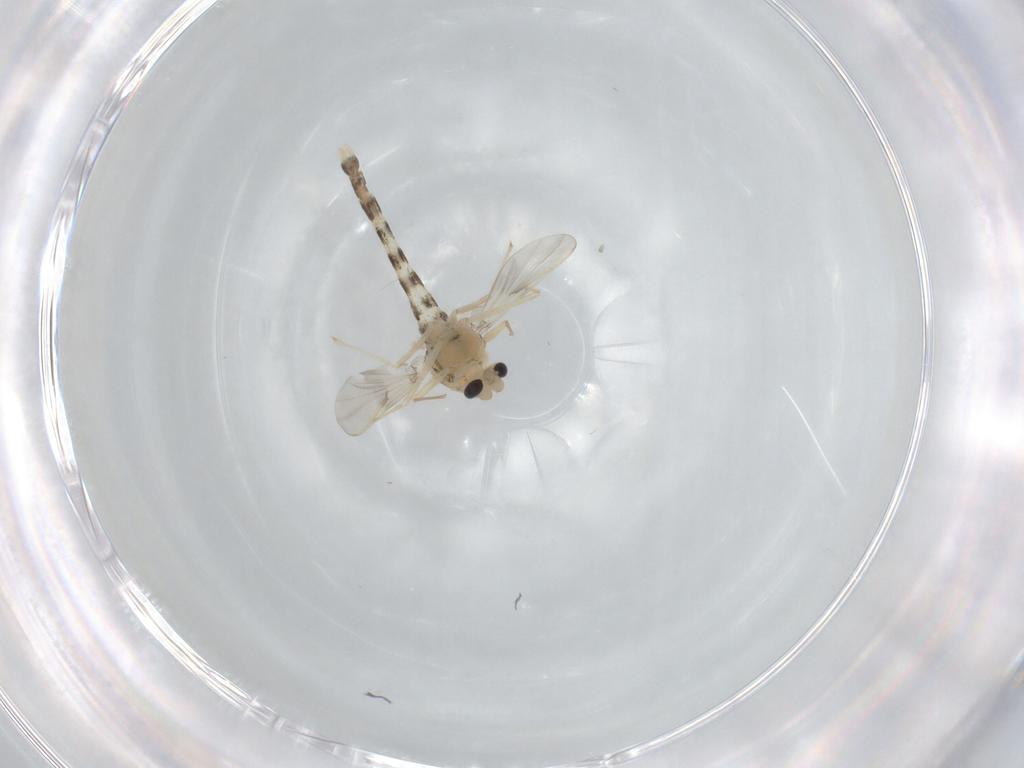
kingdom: Animalia
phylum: Arthropoda
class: Insecta
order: Diptera
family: Chironomidae
